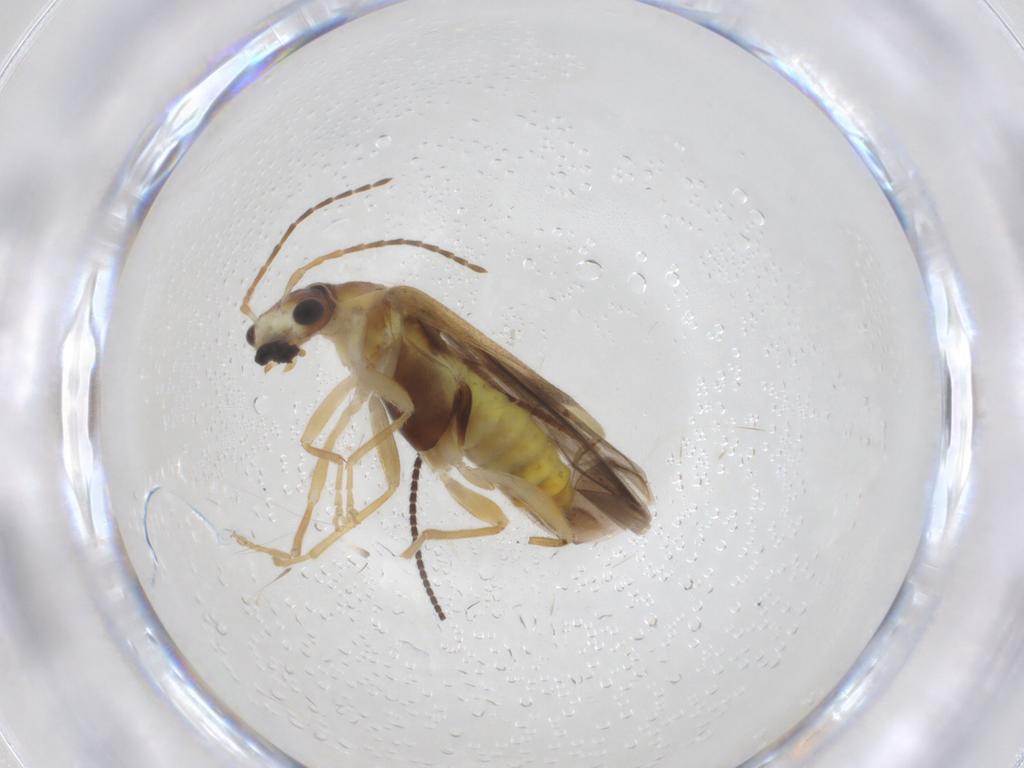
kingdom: Animalia
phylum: Arthropoda
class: Insecta
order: Coleoptera
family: Cantharidae
